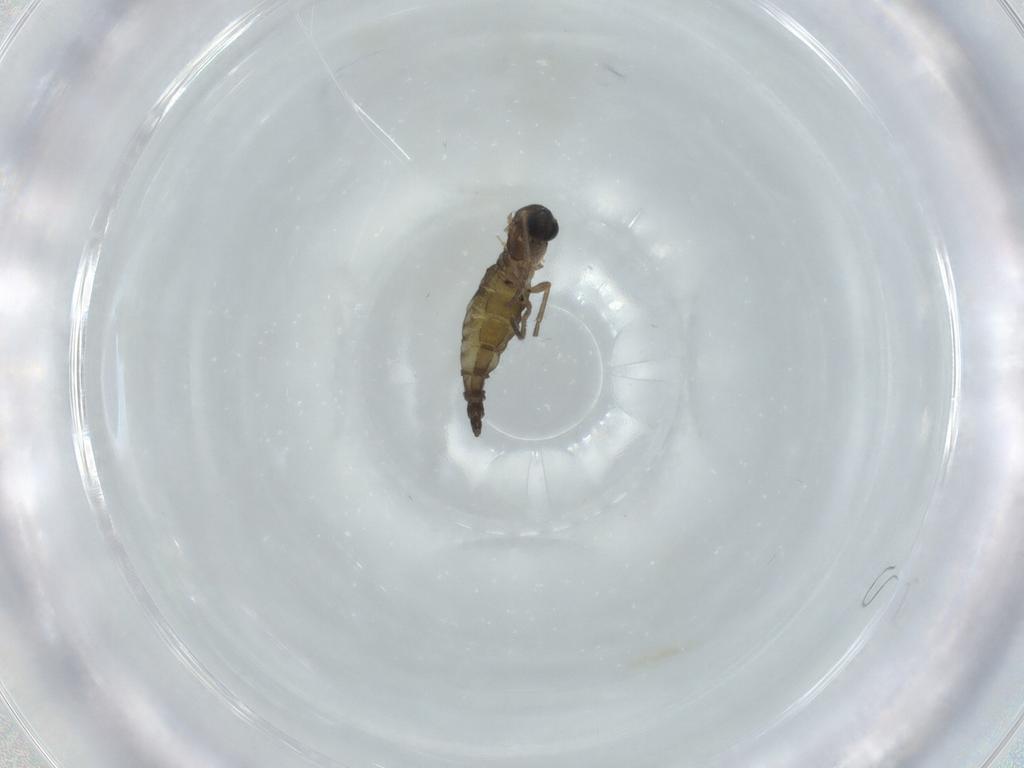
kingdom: Animalia
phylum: Arthropoda
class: Insecta
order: Diptera
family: Sciaridae
